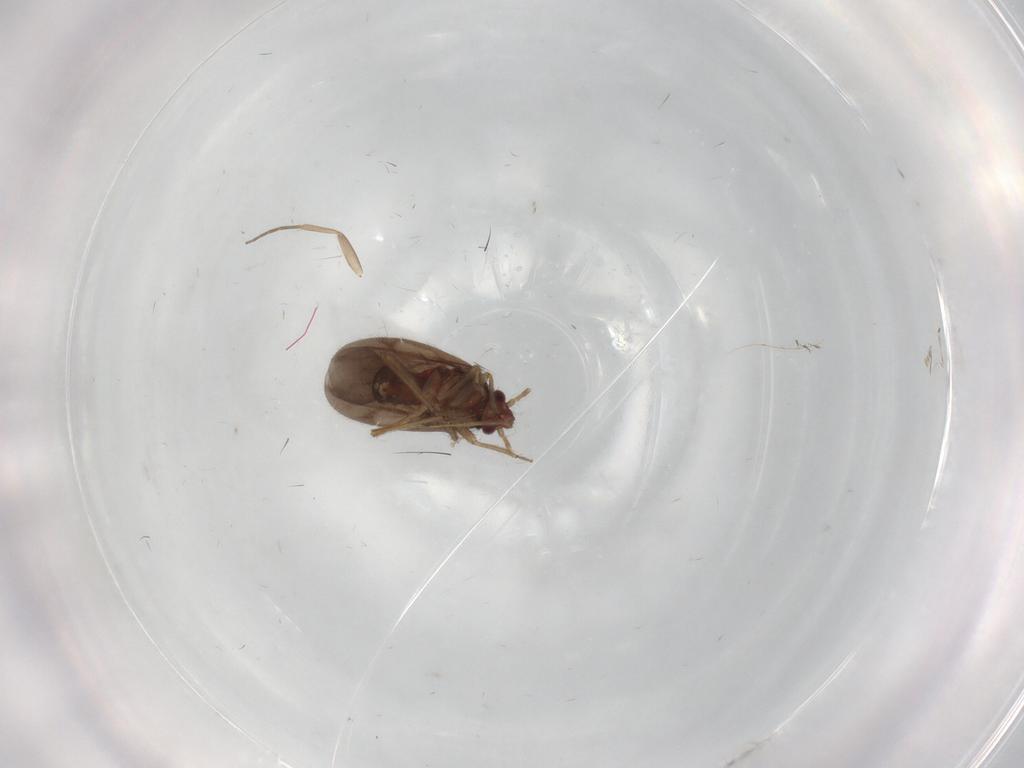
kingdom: Animalia
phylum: Arthropoda
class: Insecta
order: Hemiptera
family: Ceratocombidae
